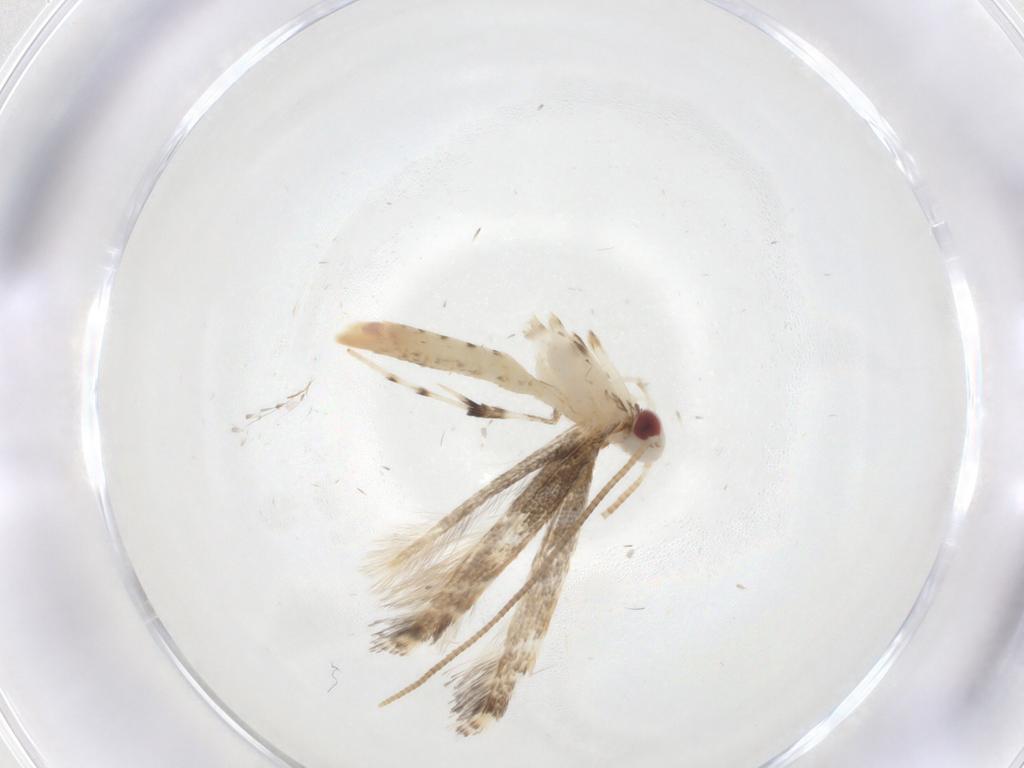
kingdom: Animalia
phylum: Arthropoda
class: Insecta
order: Lepidoptera
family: Gracillariidae
